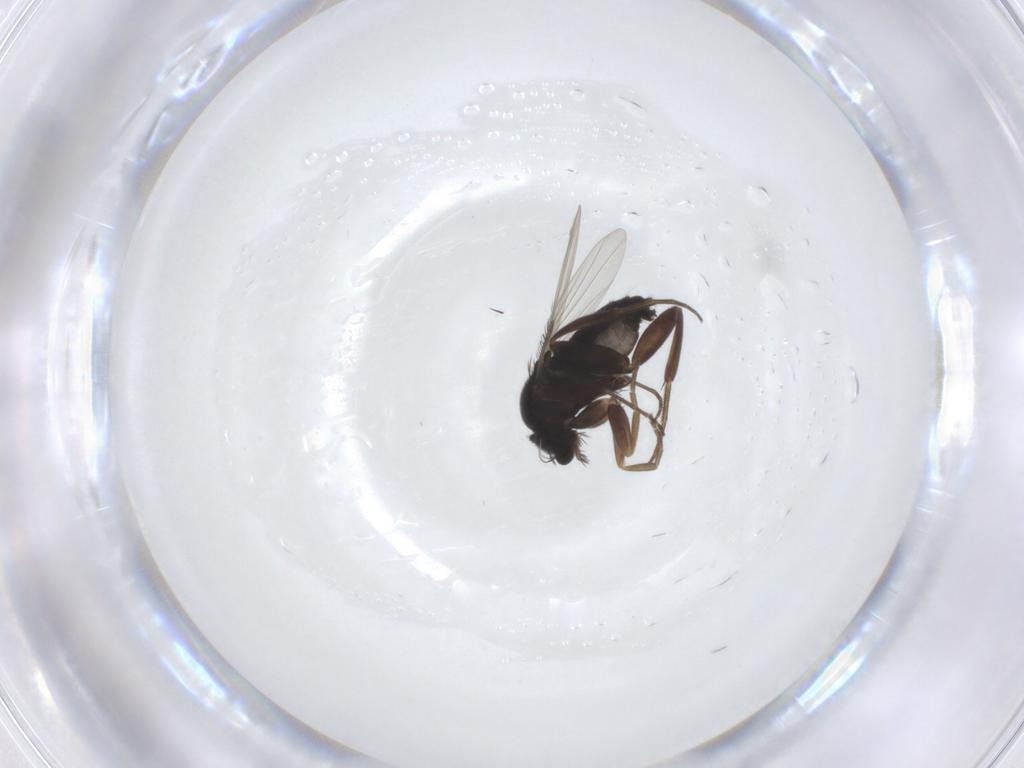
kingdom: Animalia
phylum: Arthropoda
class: Insecta
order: Diptera
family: Keroplatidae
